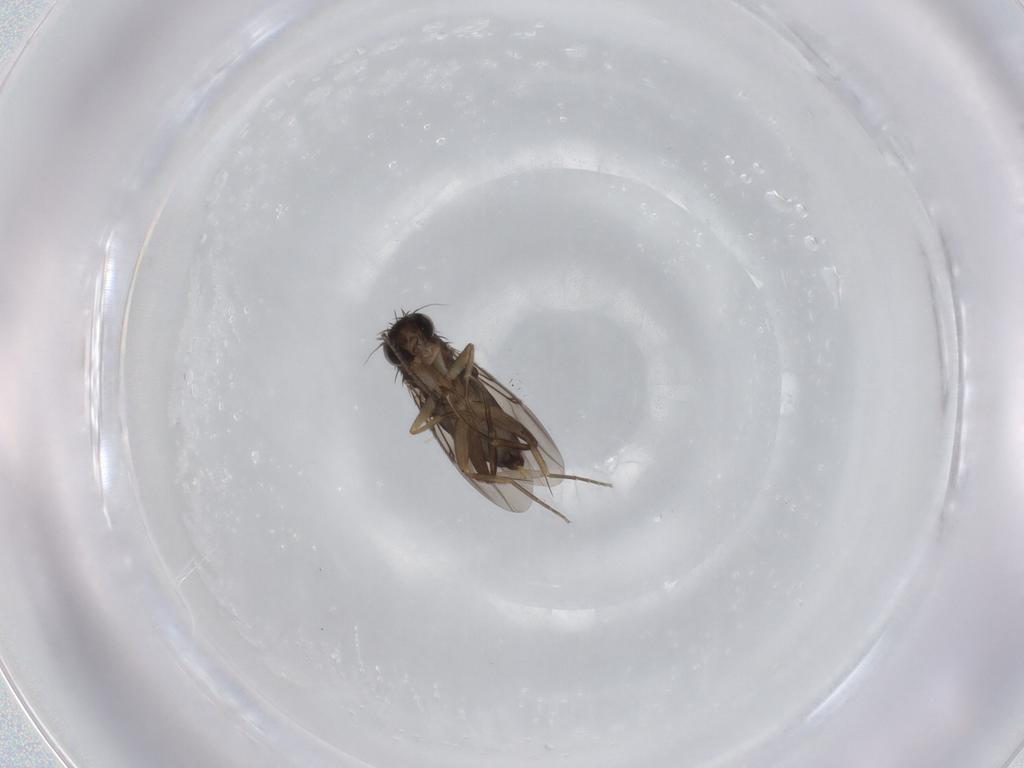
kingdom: Animalia
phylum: Arthropoda
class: Insecta
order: Diptera
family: Phoridae
